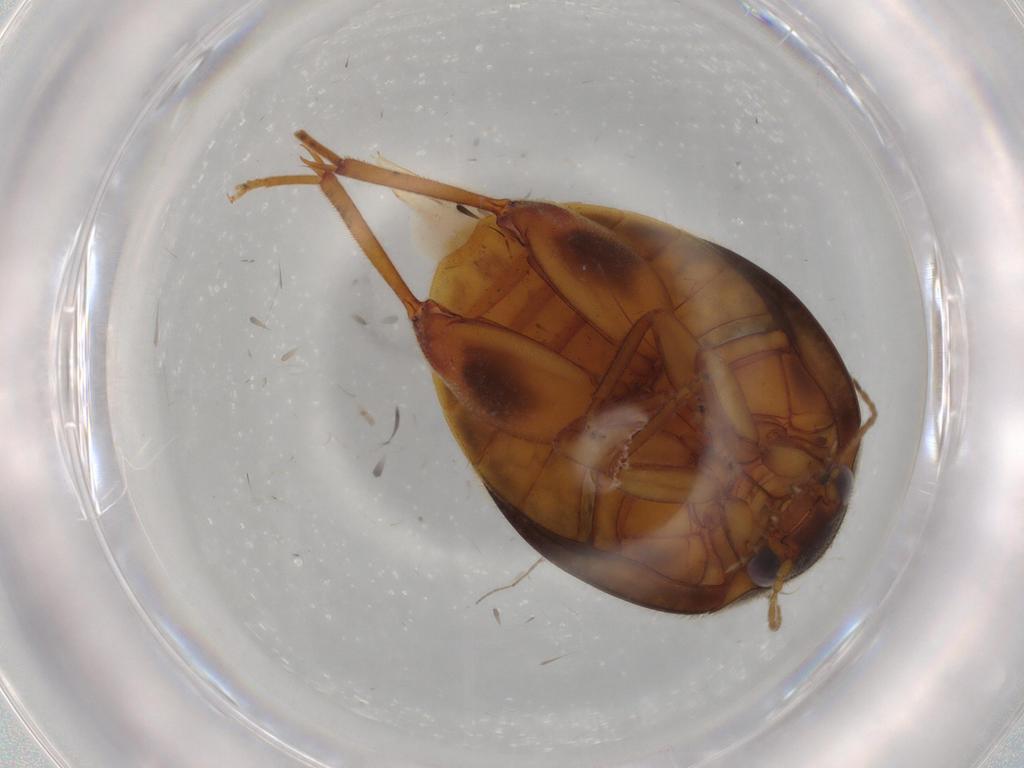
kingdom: Animalia
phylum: Arthropoda
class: Insecta
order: Coleoptera
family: Scirtidae
